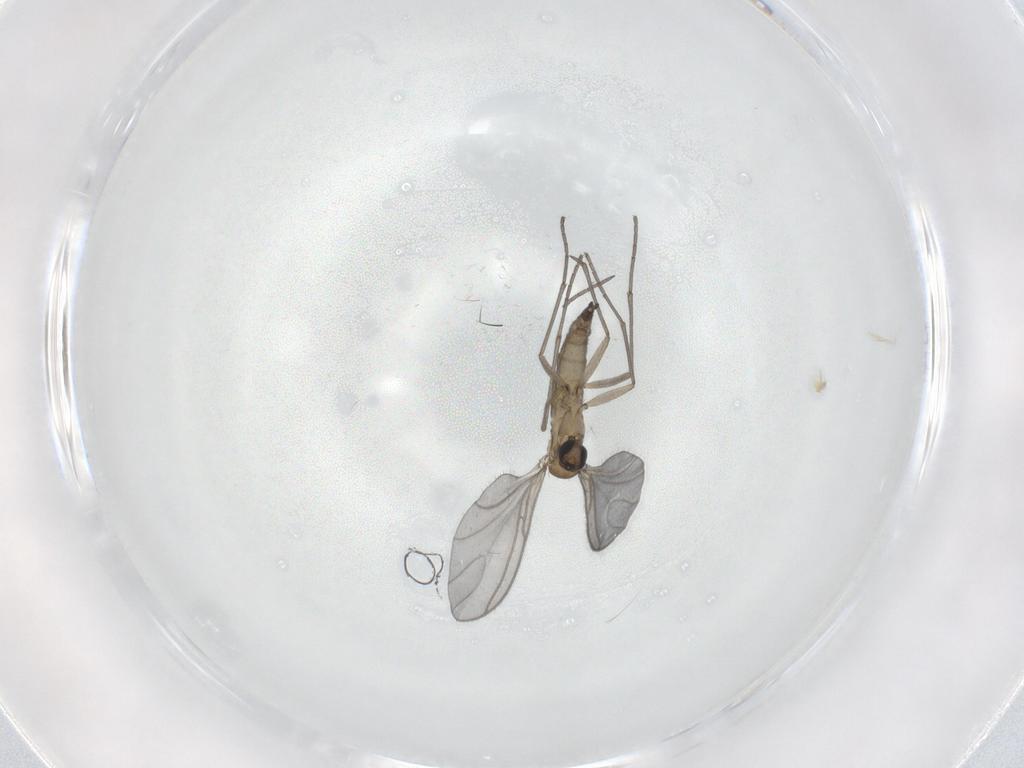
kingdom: Animalia
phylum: Arthropoda
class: Insecta
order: Diptera
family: Sciaridae
